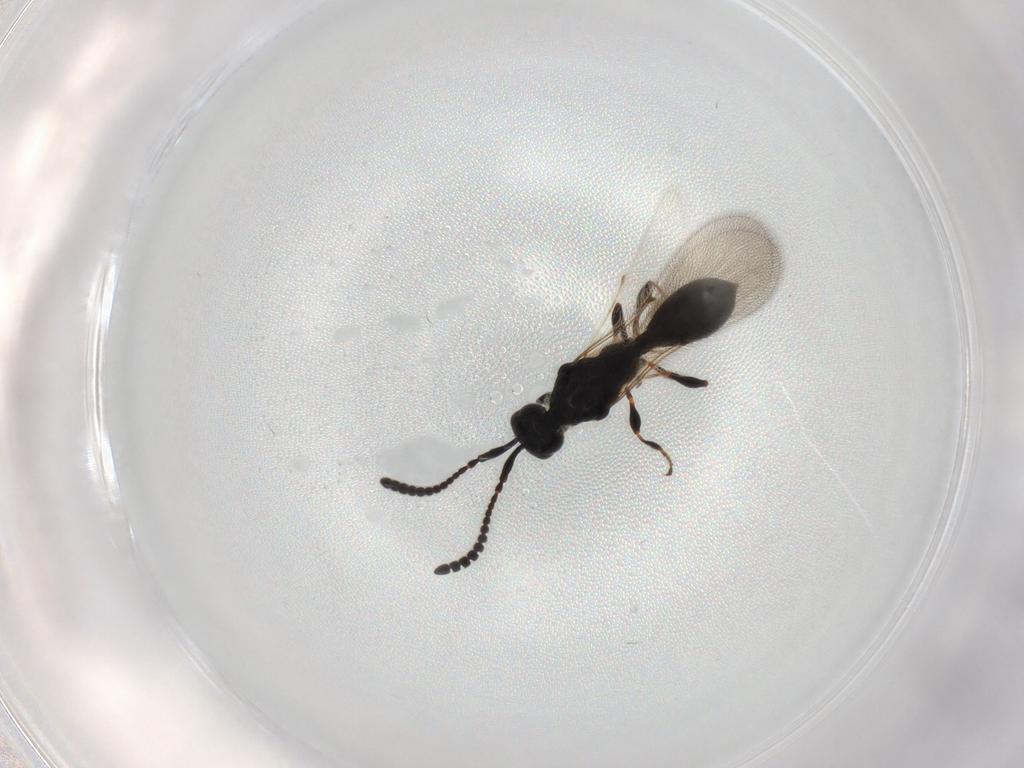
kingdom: Animalia
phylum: Arthropoda
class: Insecta
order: Hymenoptera
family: Diapriidae
